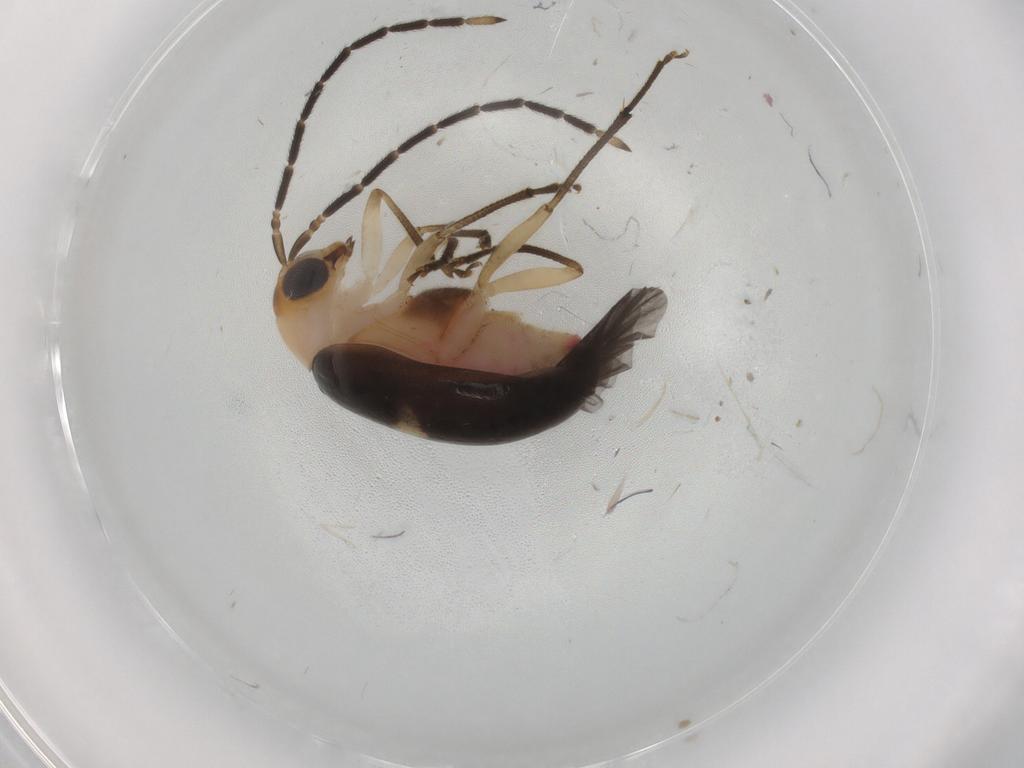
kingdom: Animalia
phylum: Arthropoda
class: Insecta
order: Coleoptera
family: Chrysomelidae
